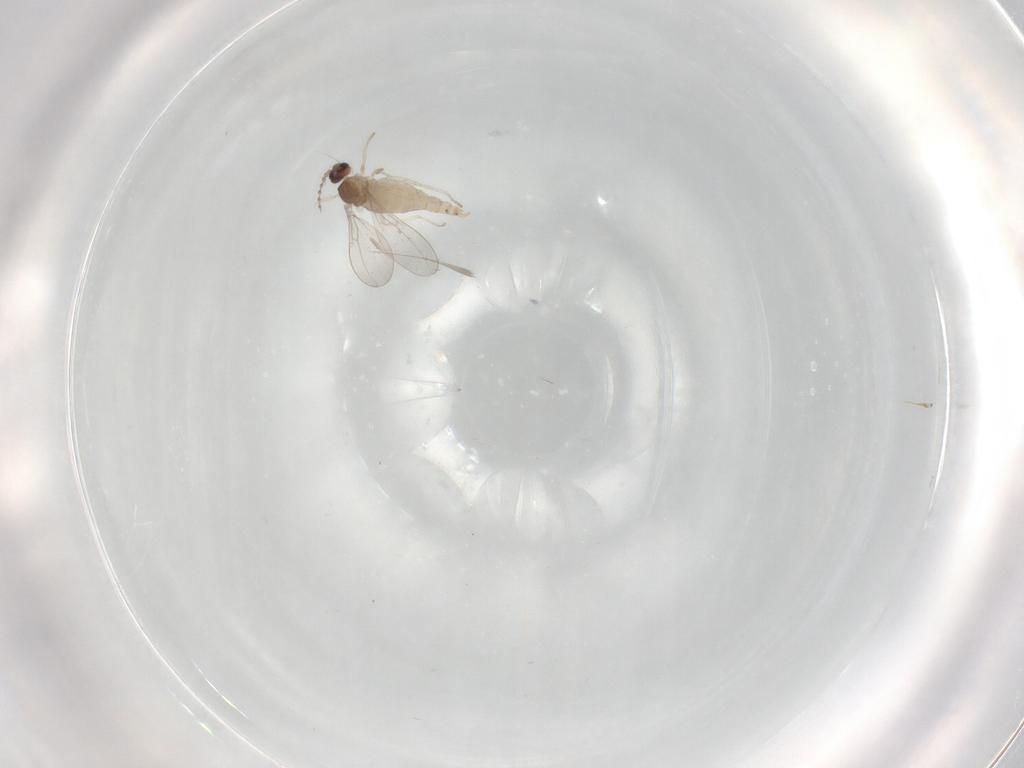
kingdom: Animalia
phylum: Arthropoda
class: Insecta
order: Diptera
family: Cecidomyiidae
